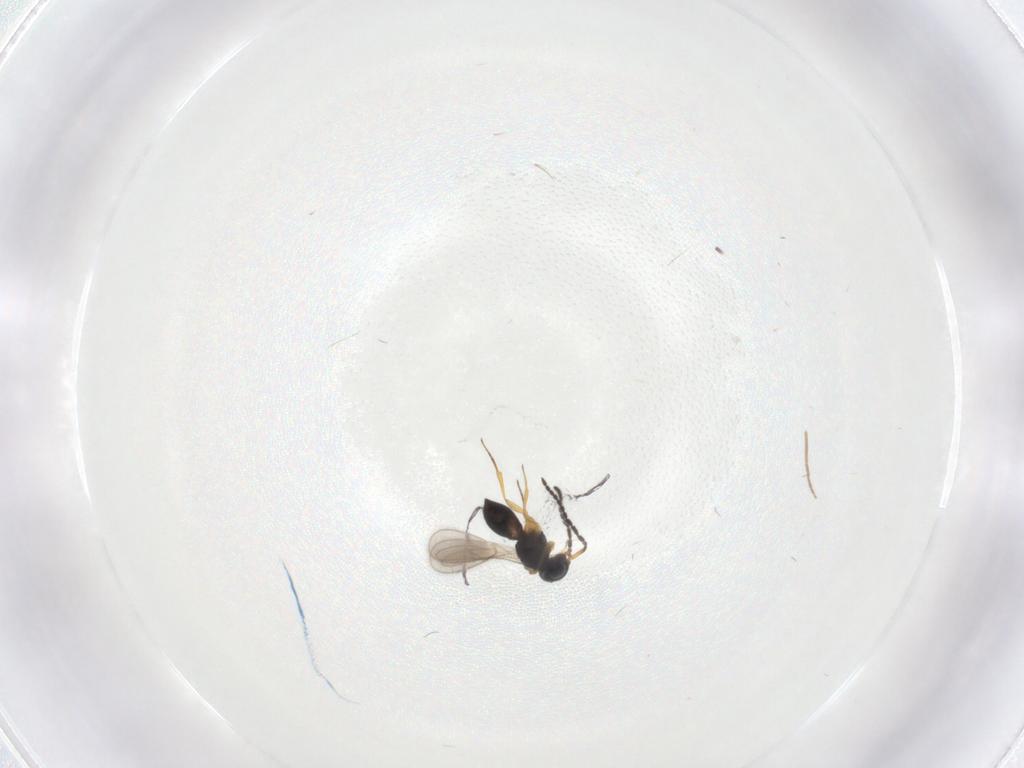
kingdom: Animalia
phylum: Arthropoda
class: Insecta
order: Hymenoptera
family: Scelionidae
